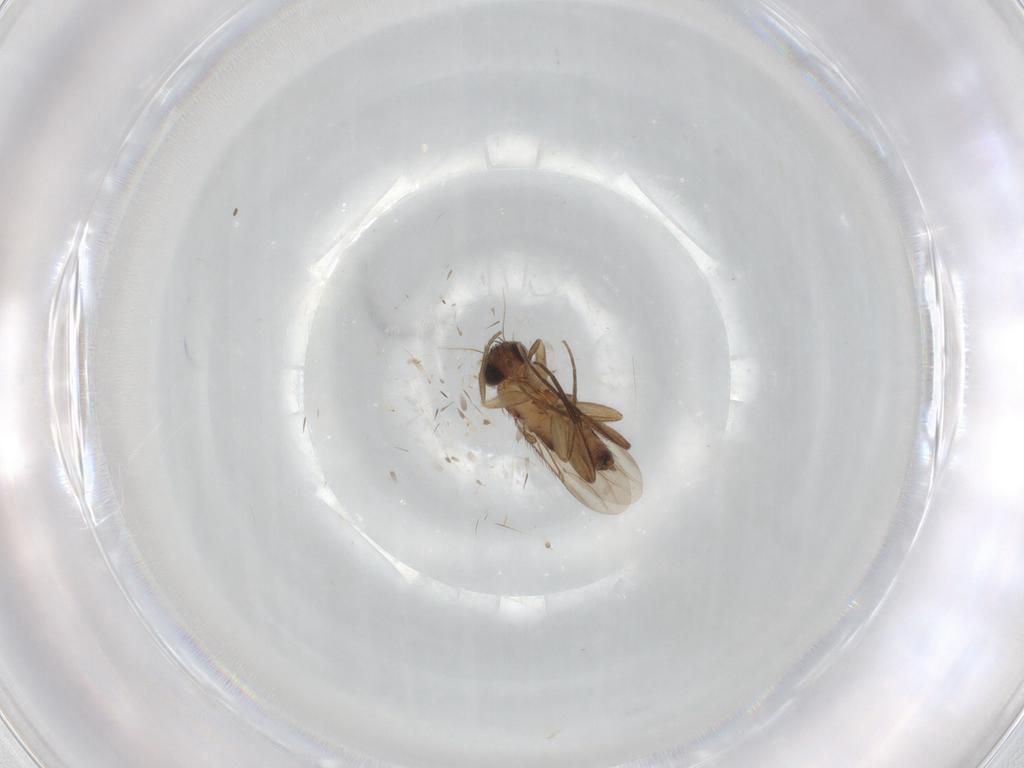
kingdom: Animalia
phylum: Arthropoda
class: Insecta
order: Diptera
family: Phoridae
